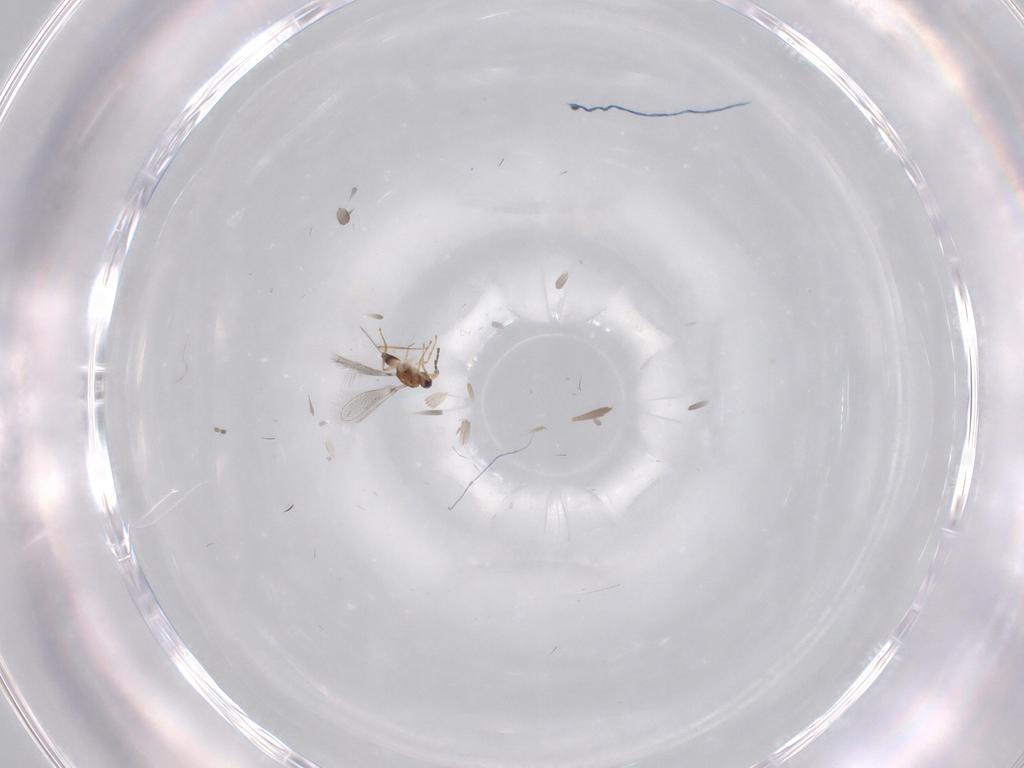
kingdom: Animalia
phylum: Arthropoda
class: Insecta
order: Hymenoptera
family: Mymaridae
